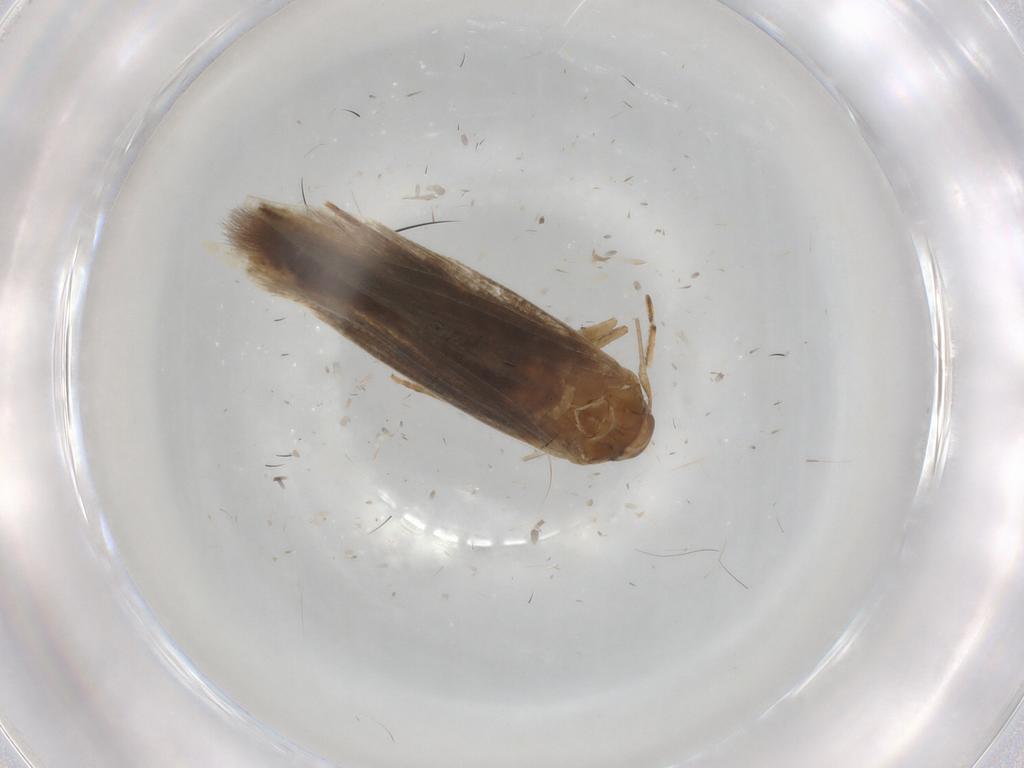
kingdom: Animalia
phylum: Arthropoda
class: Insecta
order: Lepidoptera
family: Cosmopterigidae
